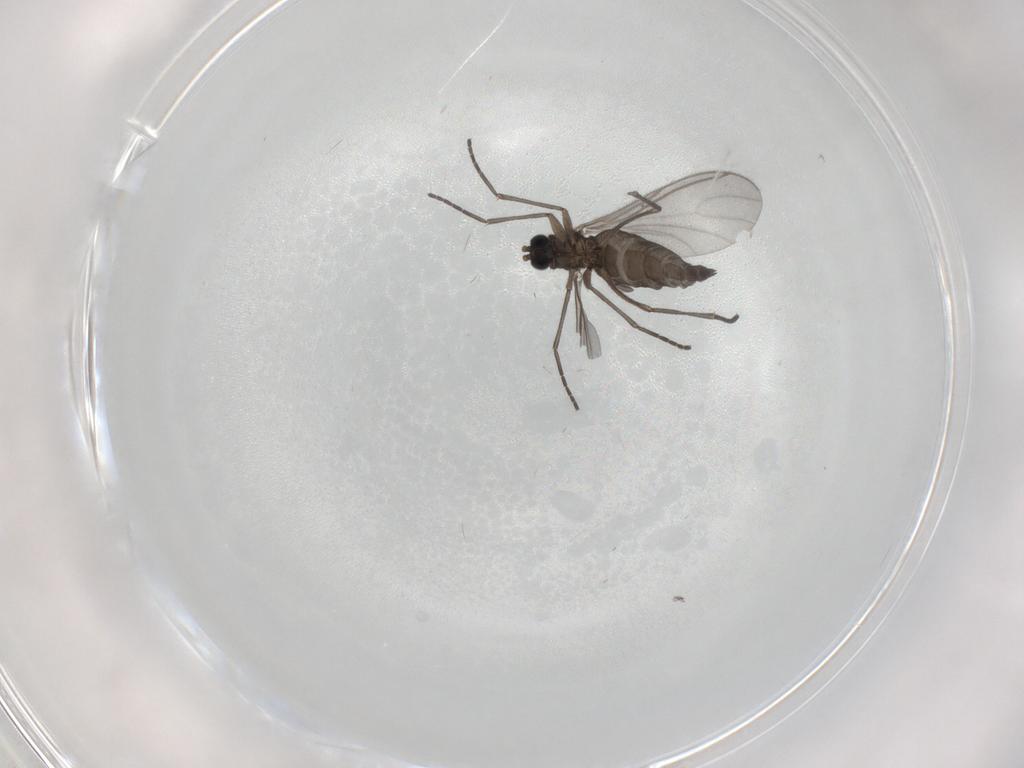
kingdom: Animalia
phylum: Arthropoda
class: Insecta
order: Diptera
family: Sciaridae
